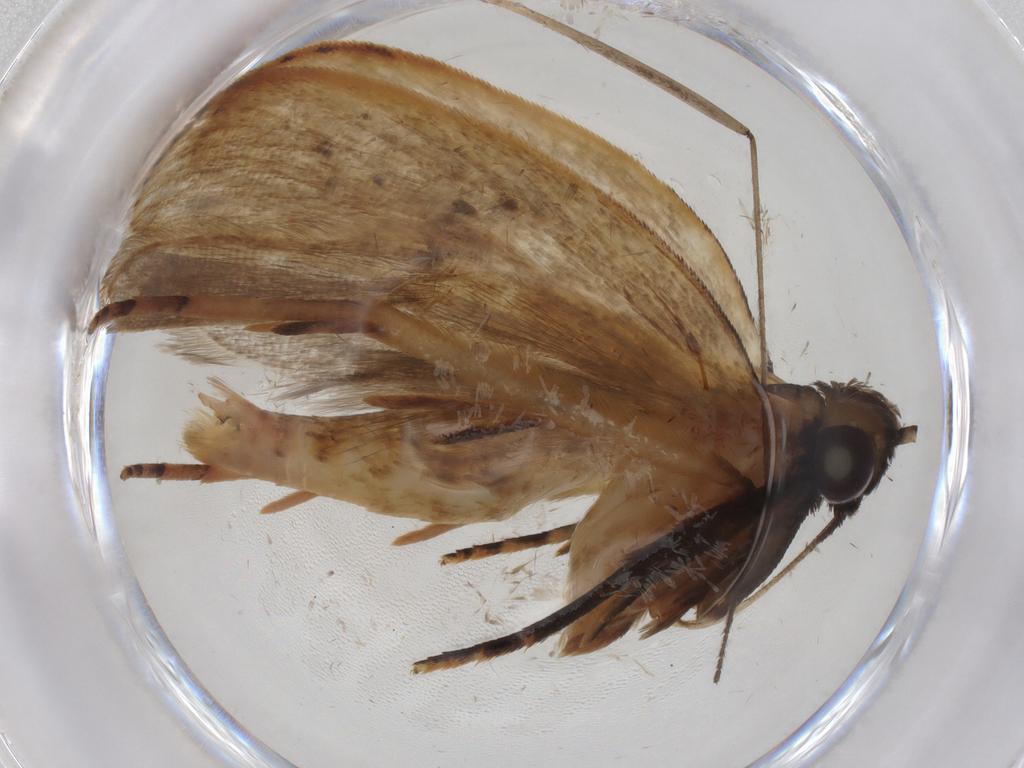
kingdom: Animalia
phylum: Arthropoda
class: Insecta
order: Lepidoptera
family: Gelechiidae
